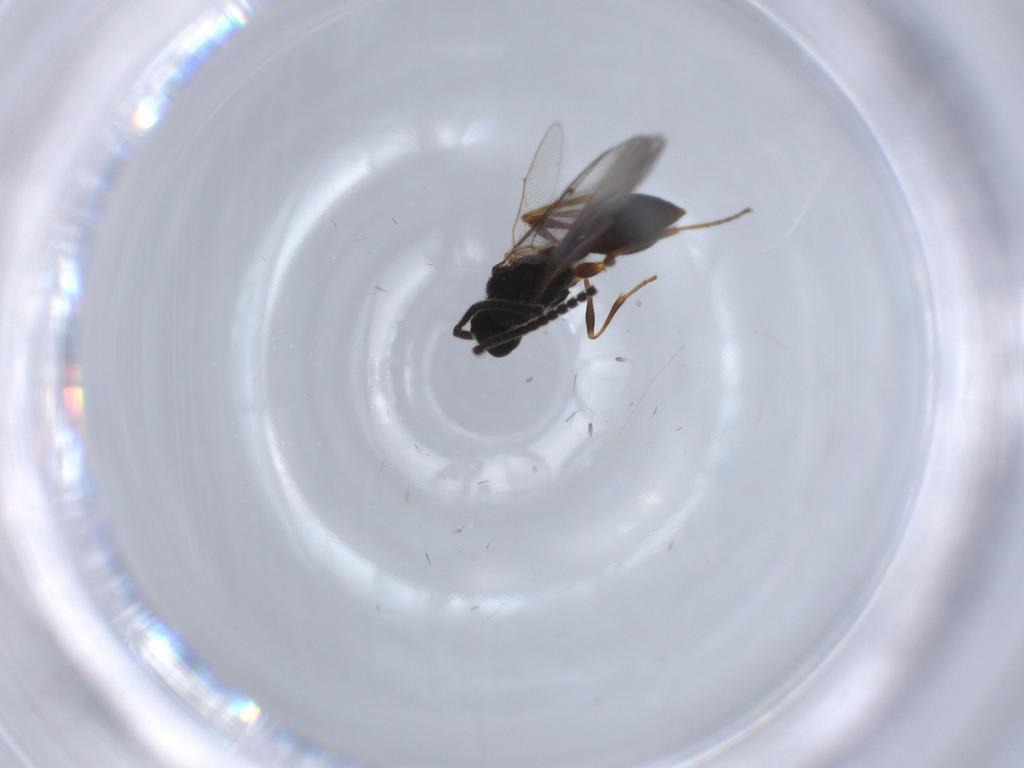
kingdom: Animalia
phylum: Arthropoda
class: Insecta
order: Hymenoptera
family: Diapriidae
